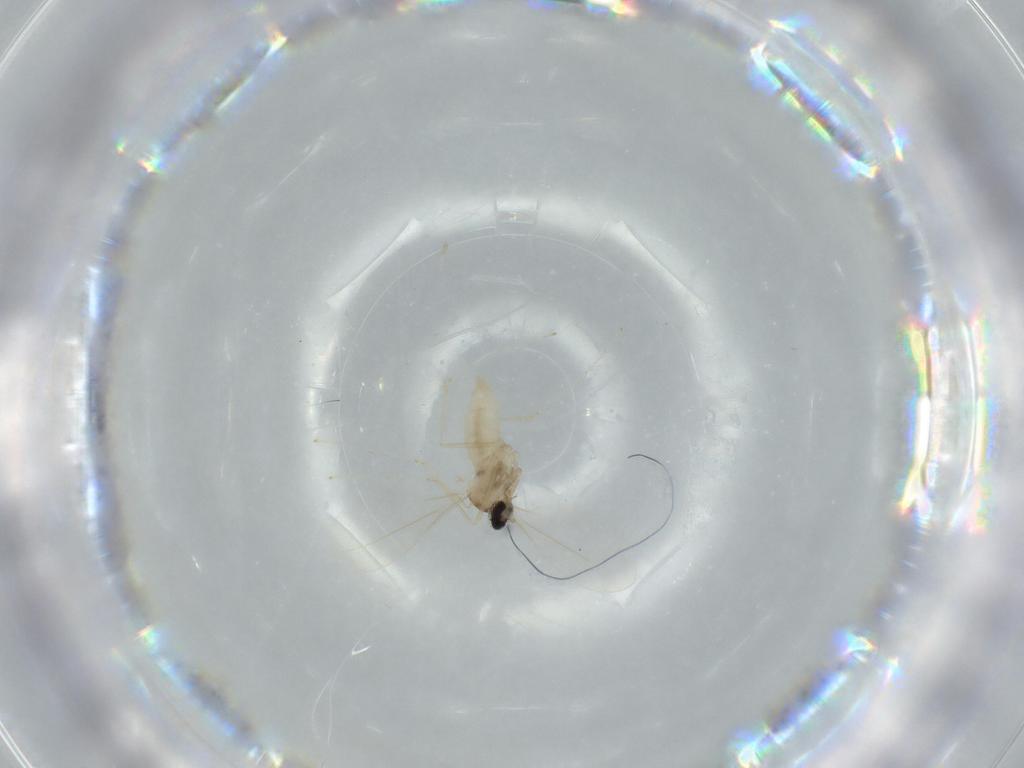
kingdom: Animalia
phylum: Arthropoda
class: Insecta
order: Diptera
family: Cecidomyiidae
